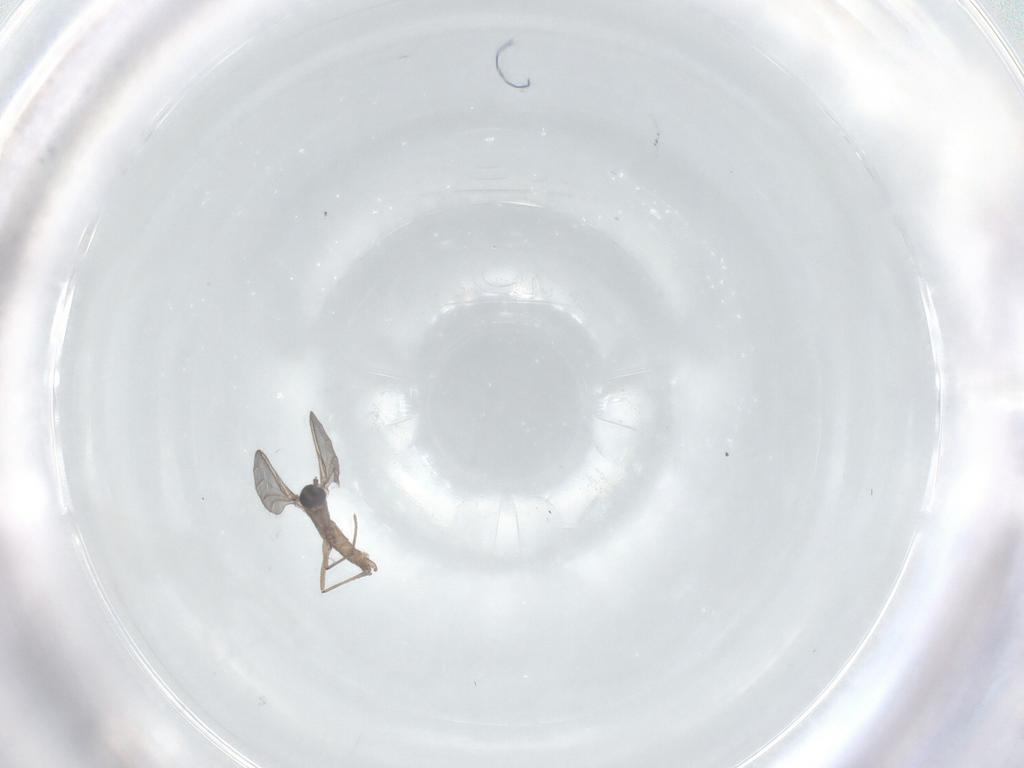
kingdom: Animalia
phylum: Arthropoda
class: Insecta
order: Diptera
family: Sciaridae
